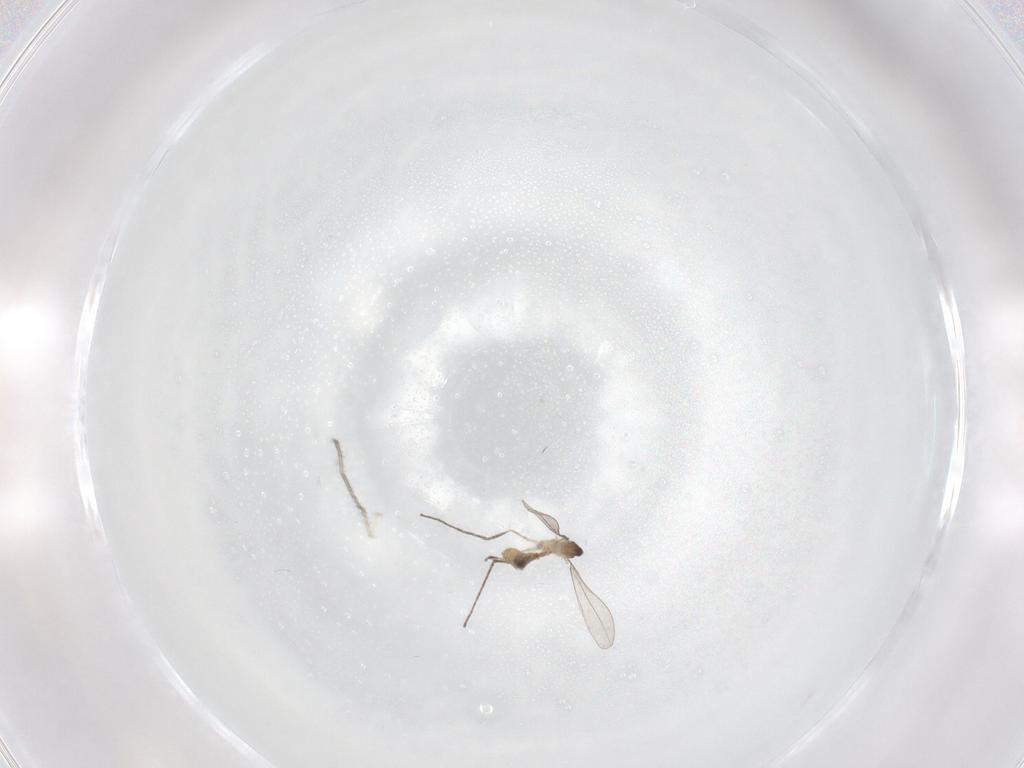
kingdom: Animalia
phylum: Arthropoda
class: Insecta
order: Diptera
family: Cecidomyiidae
